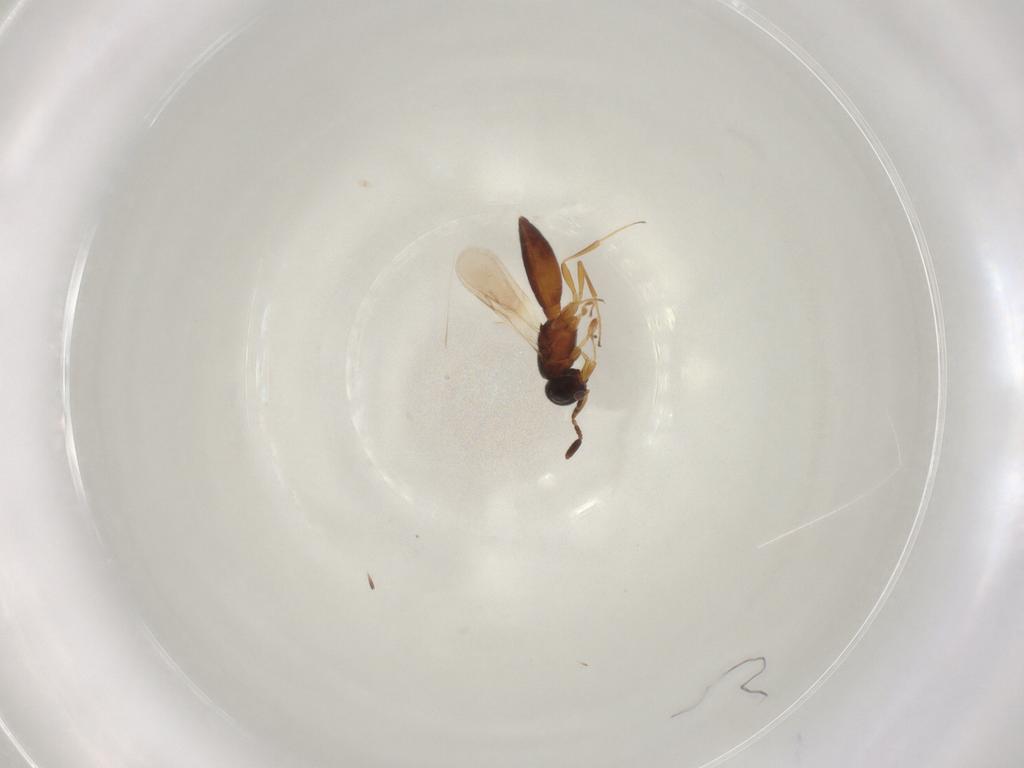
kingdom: Animalia
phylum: Arthropoda
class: Insecta
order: Hymenoptera
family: Scelionidae
